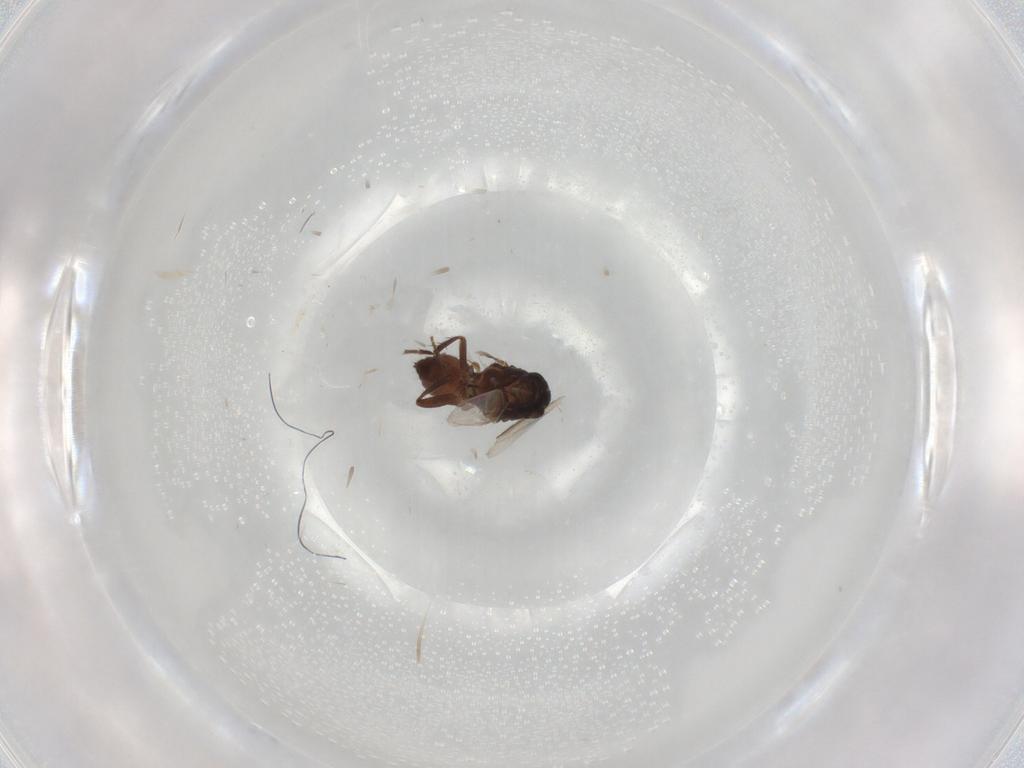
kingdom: Animalia
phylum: Arthropoda
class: Insecta
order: Diptera
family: Sphaeroceridae
